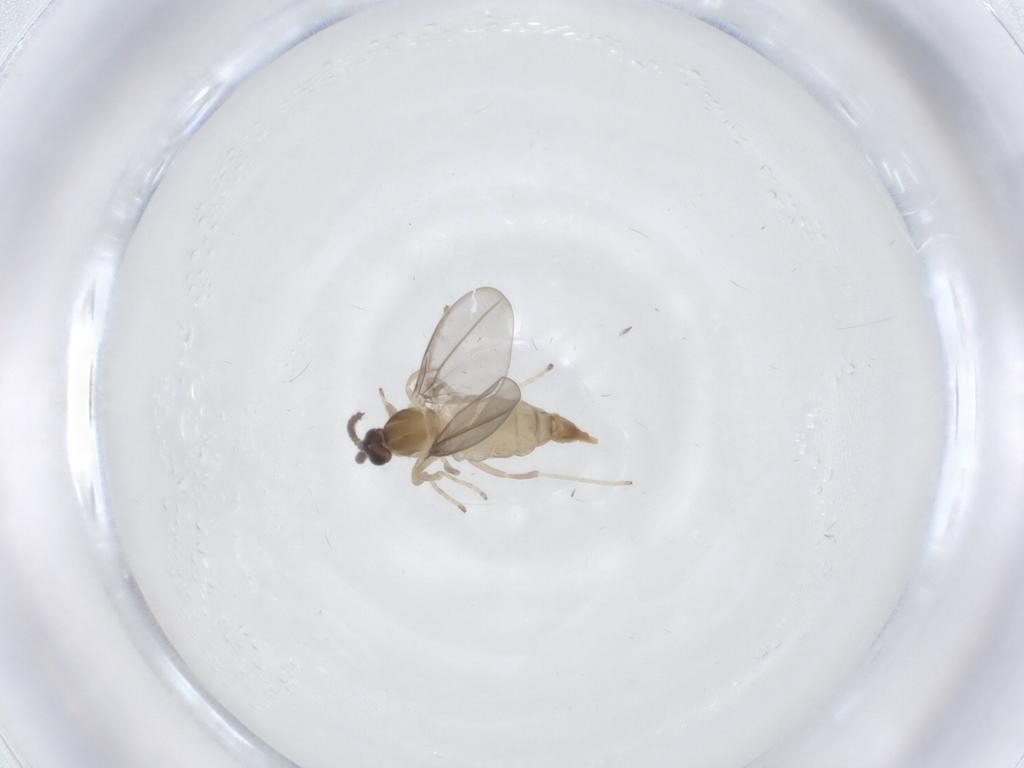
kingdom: Animalia
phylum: Arthropoda
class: Insecta
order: Diptera
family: Cecidomyiidae
